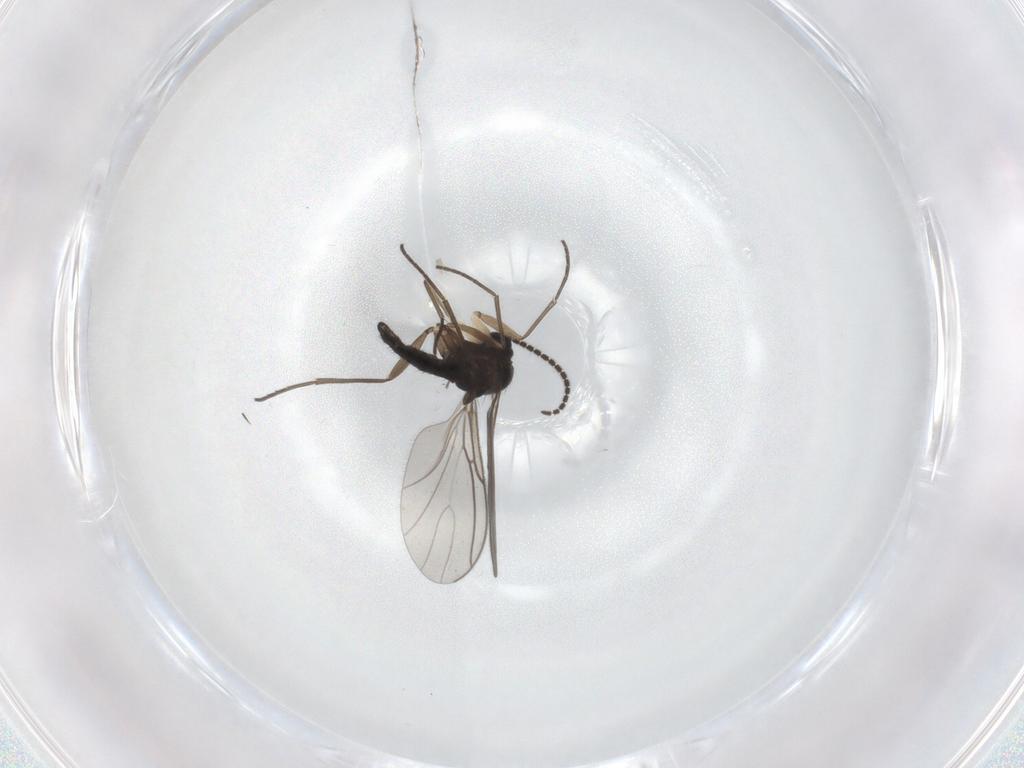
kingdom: Animalia
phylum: Arthropoda
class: Insecta
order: Diptera
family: Sciaridae
